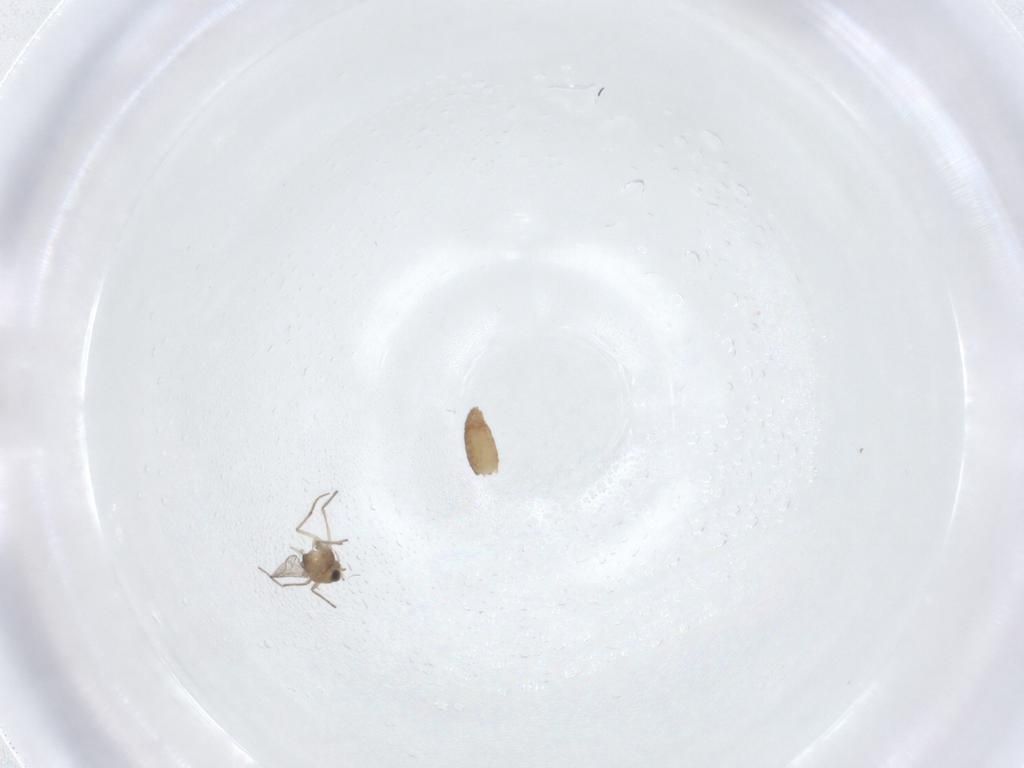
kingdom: Animalia
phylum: Arthropoda
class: Insecta
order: Diptera
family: Chironomidae
